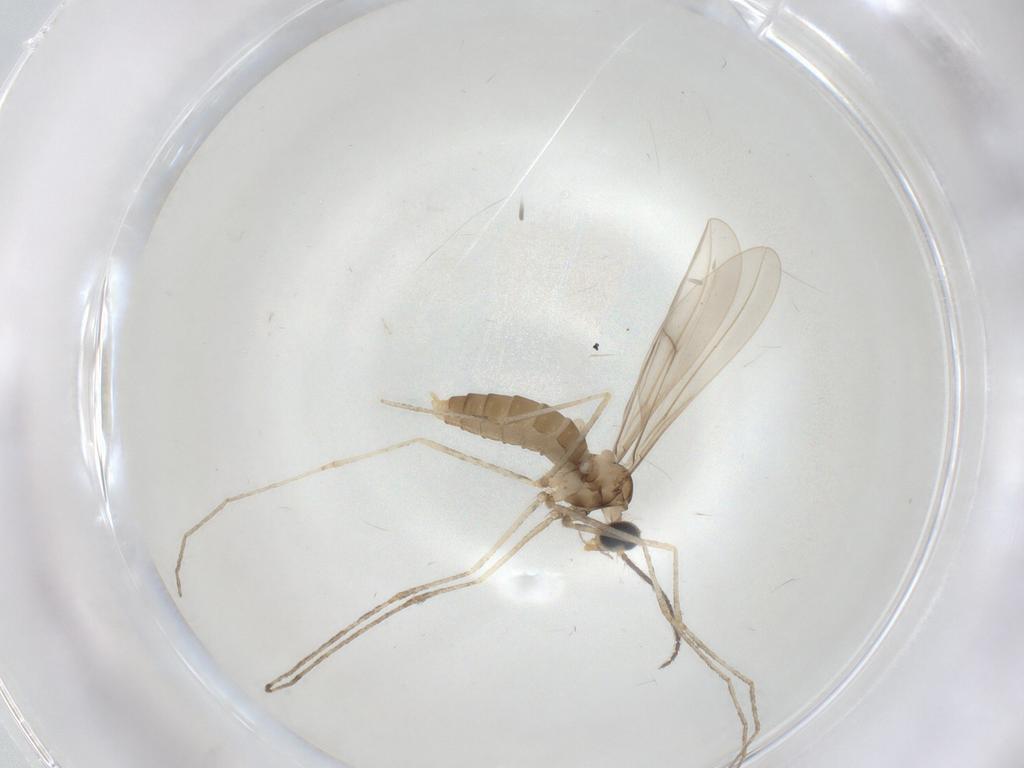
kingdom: Animalia
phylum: Arthropoda
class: Insecta
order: Diptera
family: Cecidomyiidae
